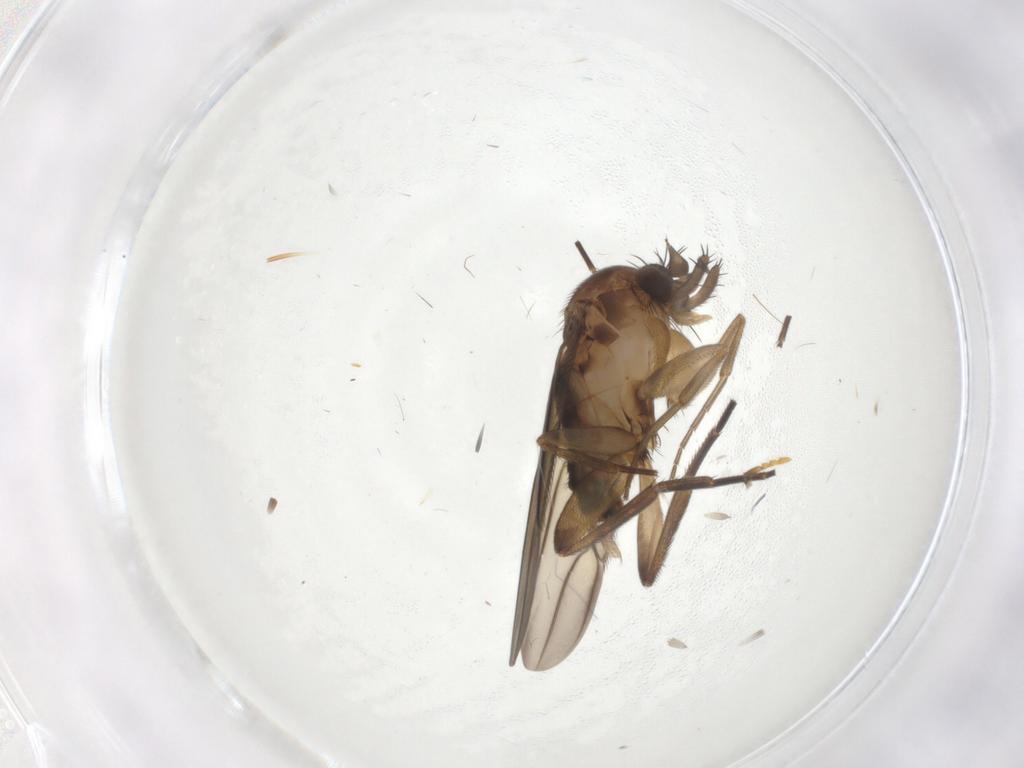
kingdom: Animalia
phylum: Arthropoda
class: Insecta
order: Diptera
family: Phoridae
